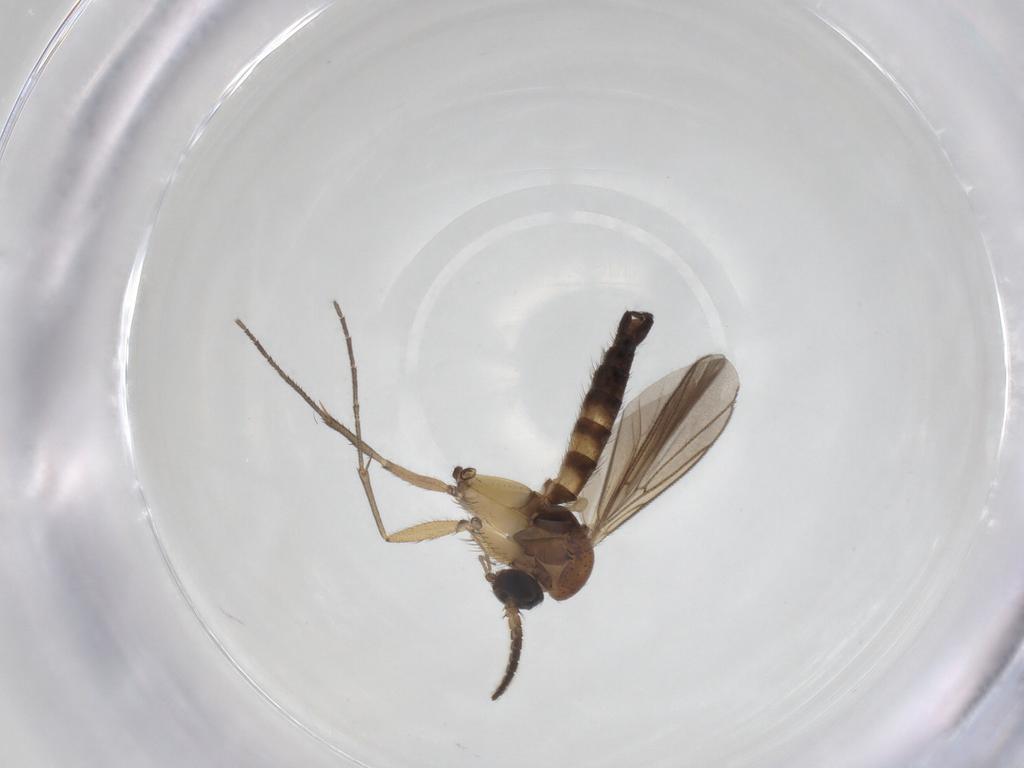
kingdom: Animalia
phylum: Arthropoda
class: Insecta
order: Diptera
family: Limoniidae
